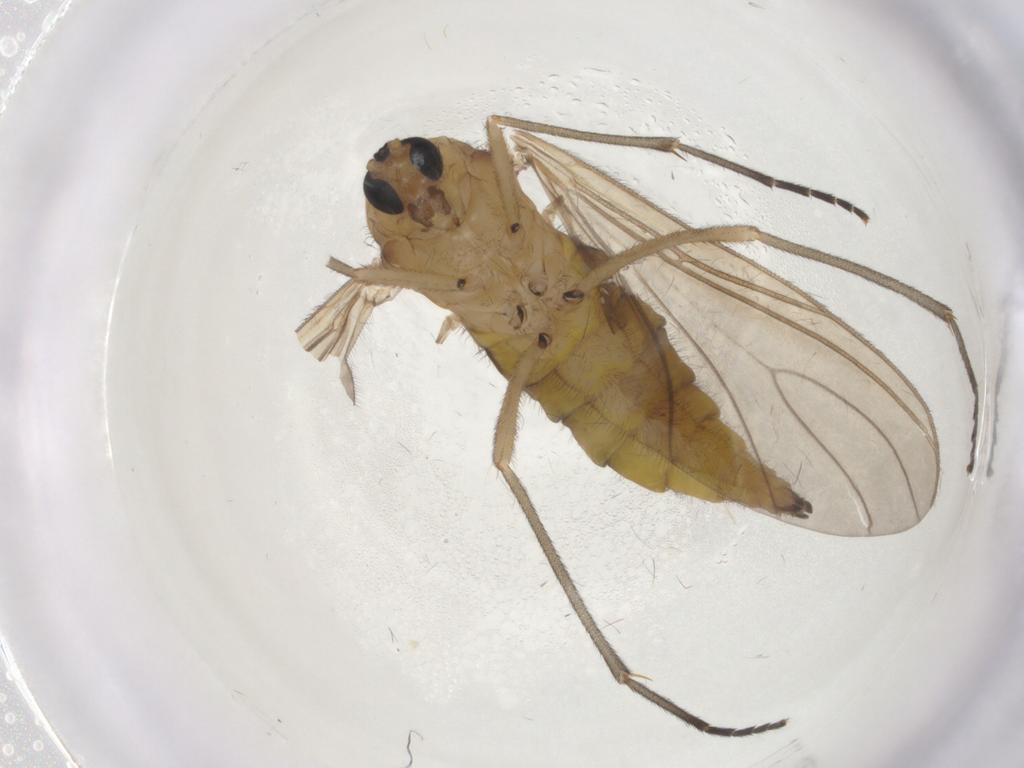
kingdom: Animalia
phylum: Arthropoda
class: Insecta
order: Diptera
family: Sciaridae
